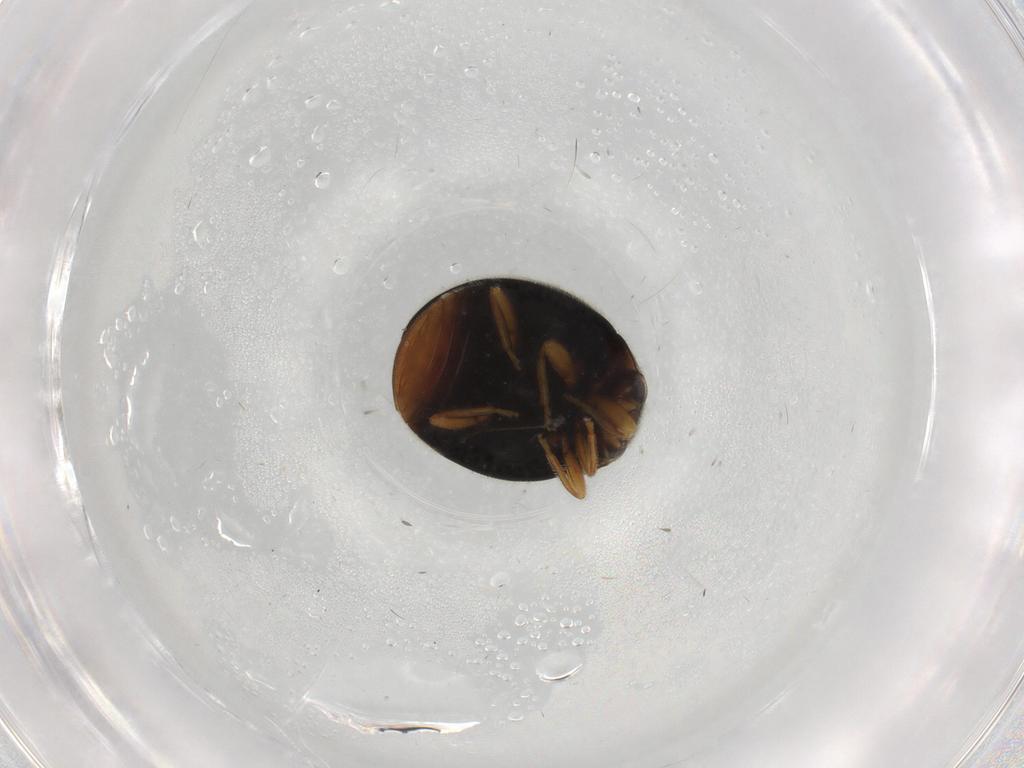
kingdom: Animalia
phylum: Arthropoda
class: Insecta
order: Coleoptera
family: Coccinellidae
